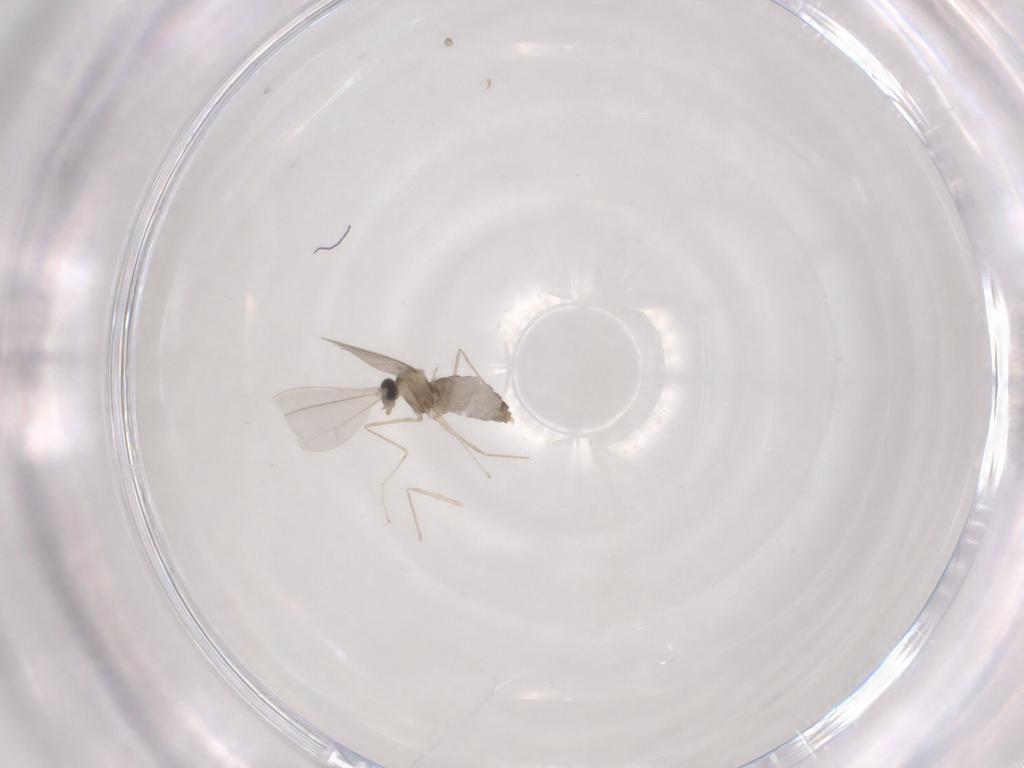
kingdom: Animalia
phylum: Arthropoda
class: Insecta
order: Diptera
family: Cecidomyiidae
